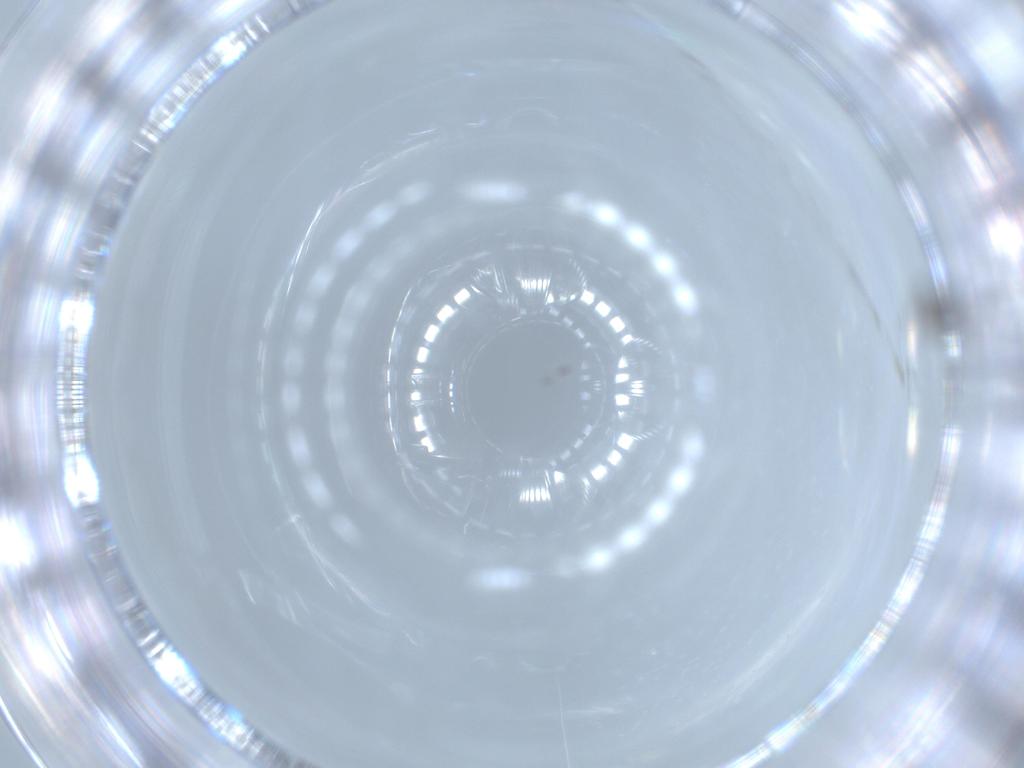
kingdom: Animalia
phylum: Arthropoda
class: Insecta
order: Diptera
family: Cecidomyiidae
